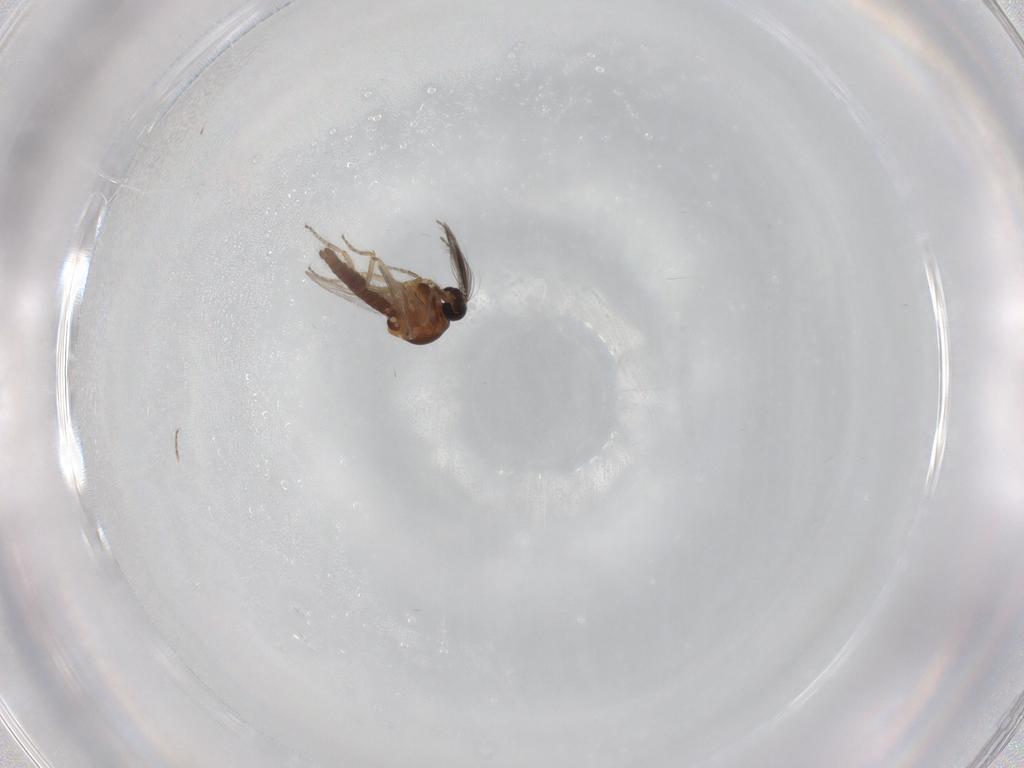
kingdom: Animalia
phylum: Arthropoda
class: Insecta
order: Diptera
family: Ceratopogonidae
